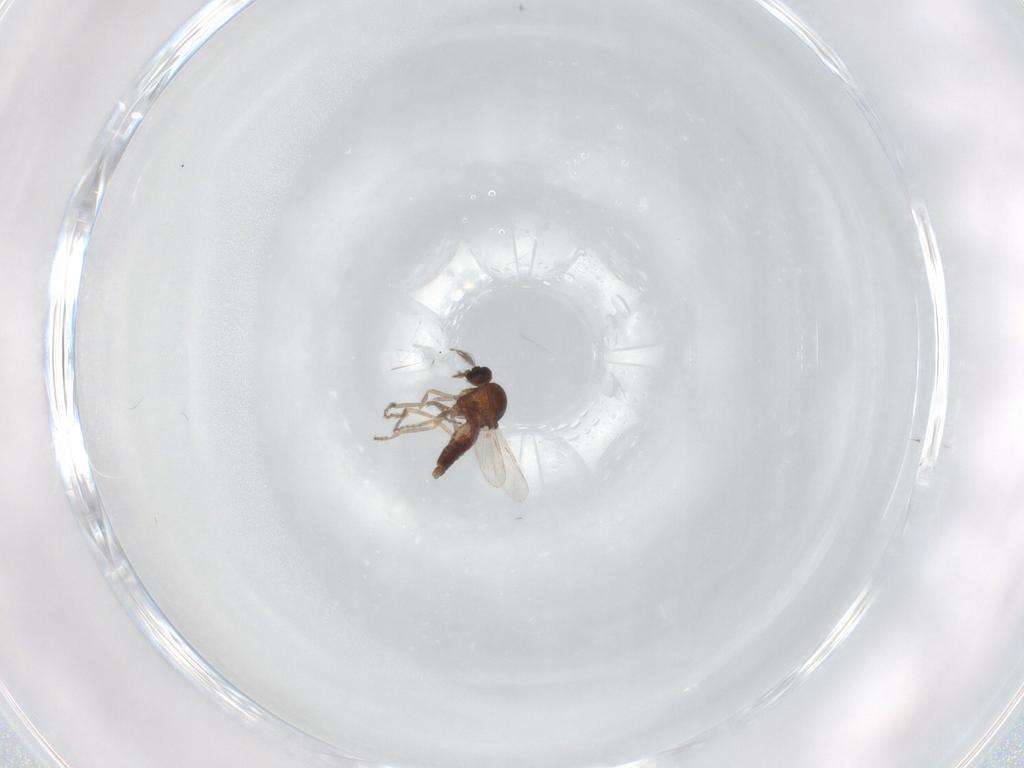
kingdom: Animalia
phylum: Arthropoda
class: Insecta
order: Diptera
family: Ceratopogonidae
